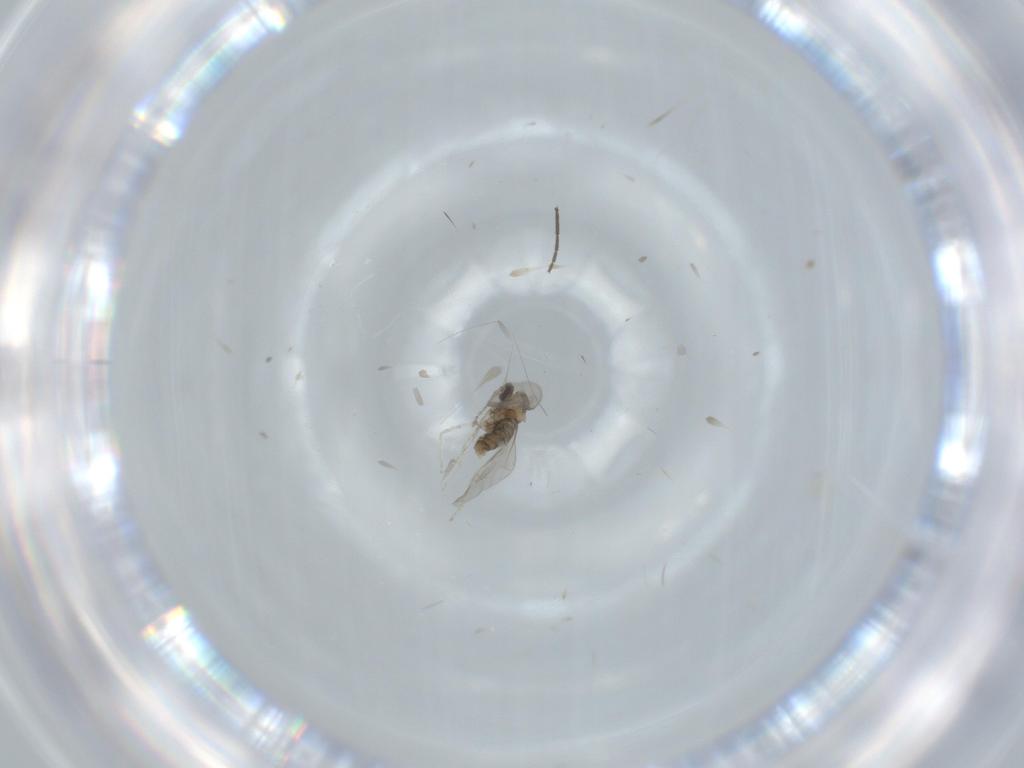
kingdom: Animalia
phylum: Arthropoda
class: Insecta
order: Diptera
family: Chironomidae
